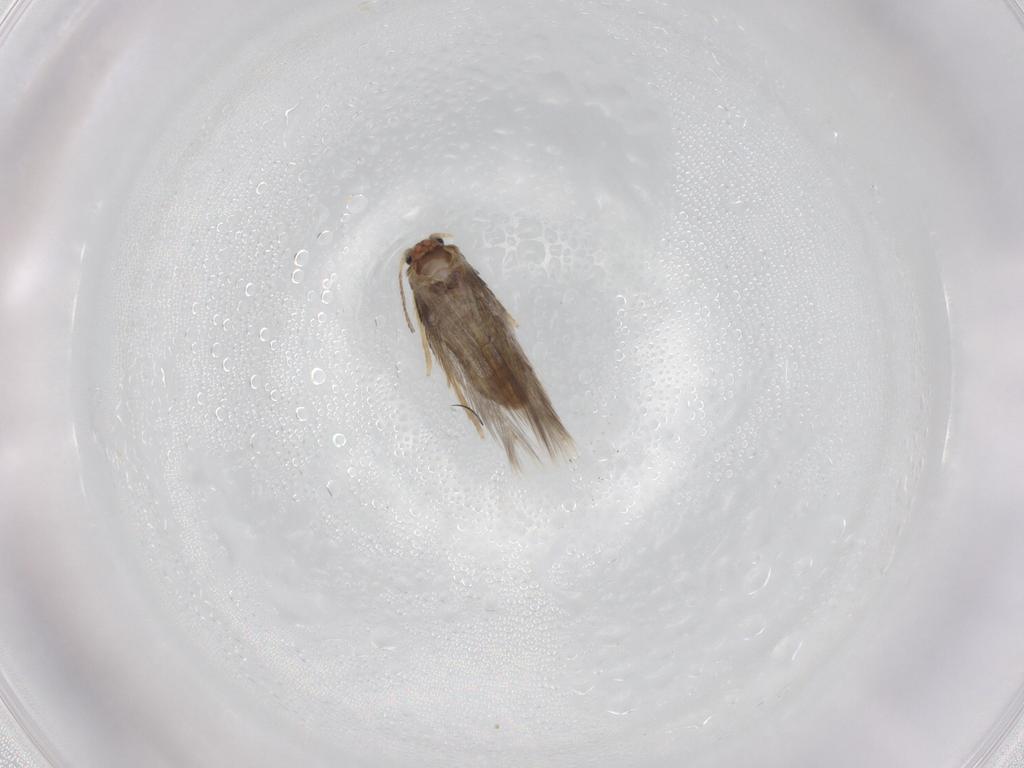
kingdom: Animalia
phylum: Arthropoda
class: Insecta
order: Lepidoptera
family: Nepticulidae
